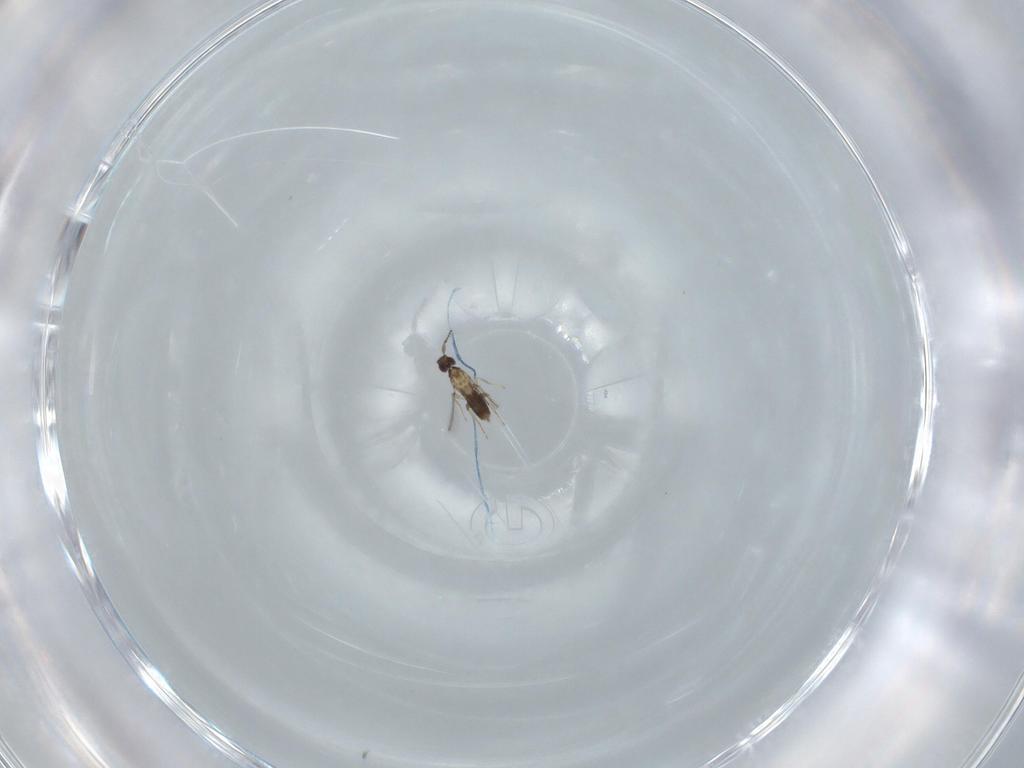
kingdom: Animalia
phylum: Arthropoda
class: Insecta
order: Hymenoptera
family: Mymaridae
